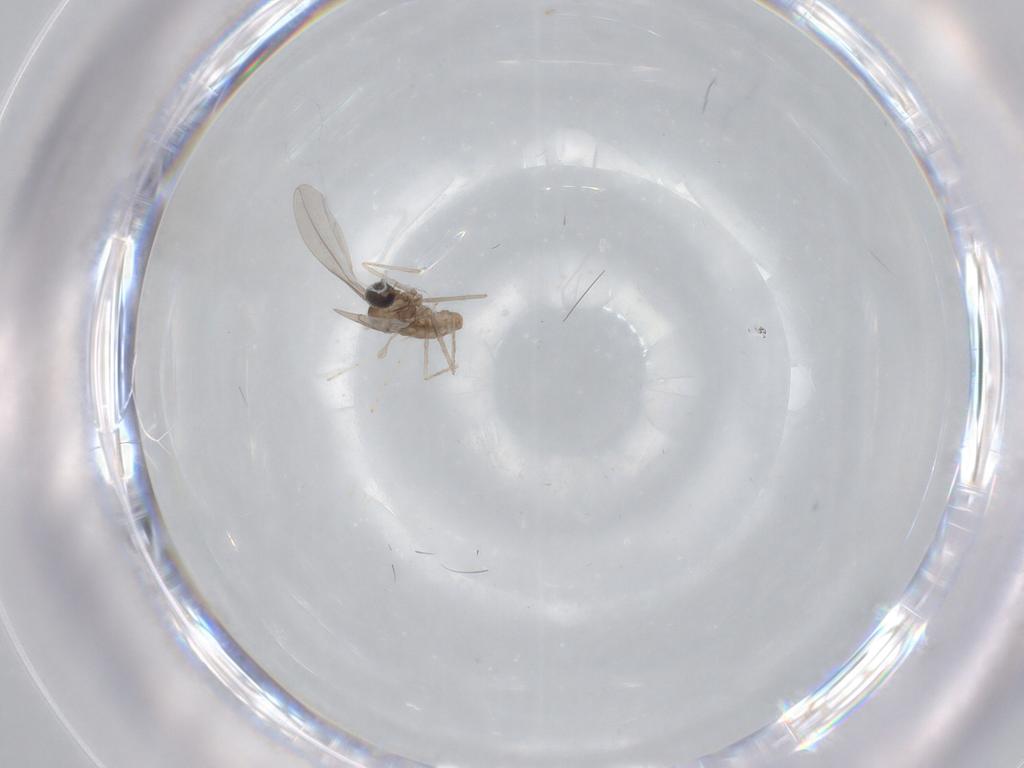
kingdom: Animalia
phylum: Arthropoda
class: Insecta
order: Diptera
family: Cecidomyiidae
